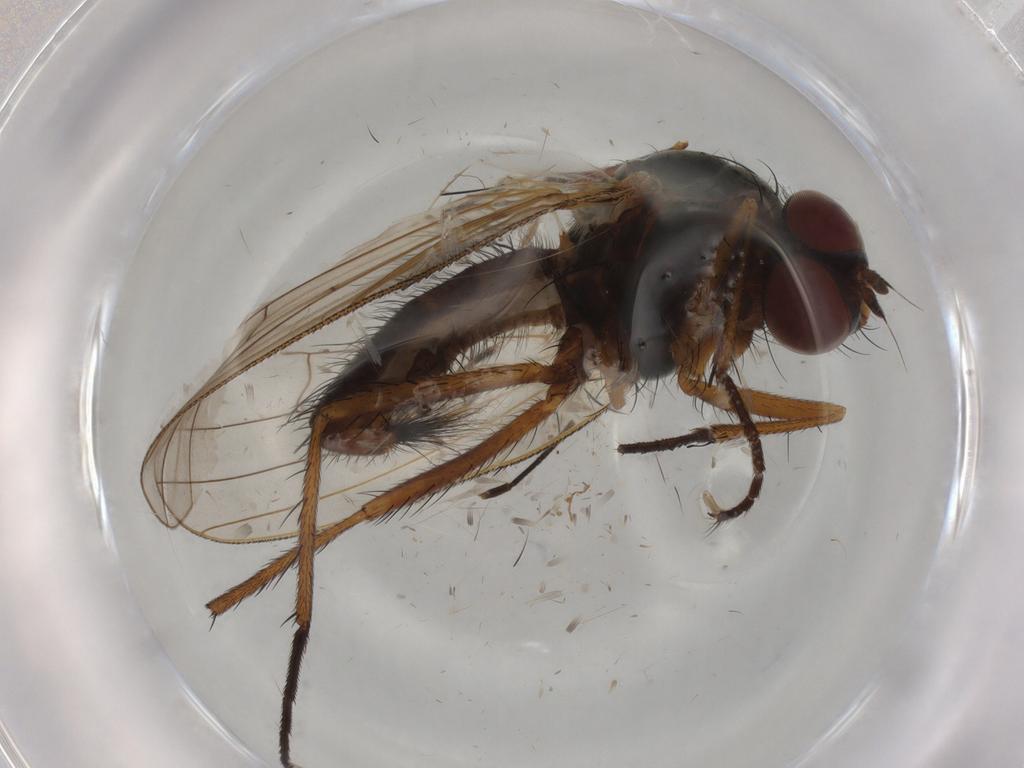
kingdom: Animalia
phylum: Arthropoda
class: Insecta
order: Diptera
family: Anthomyiidae
